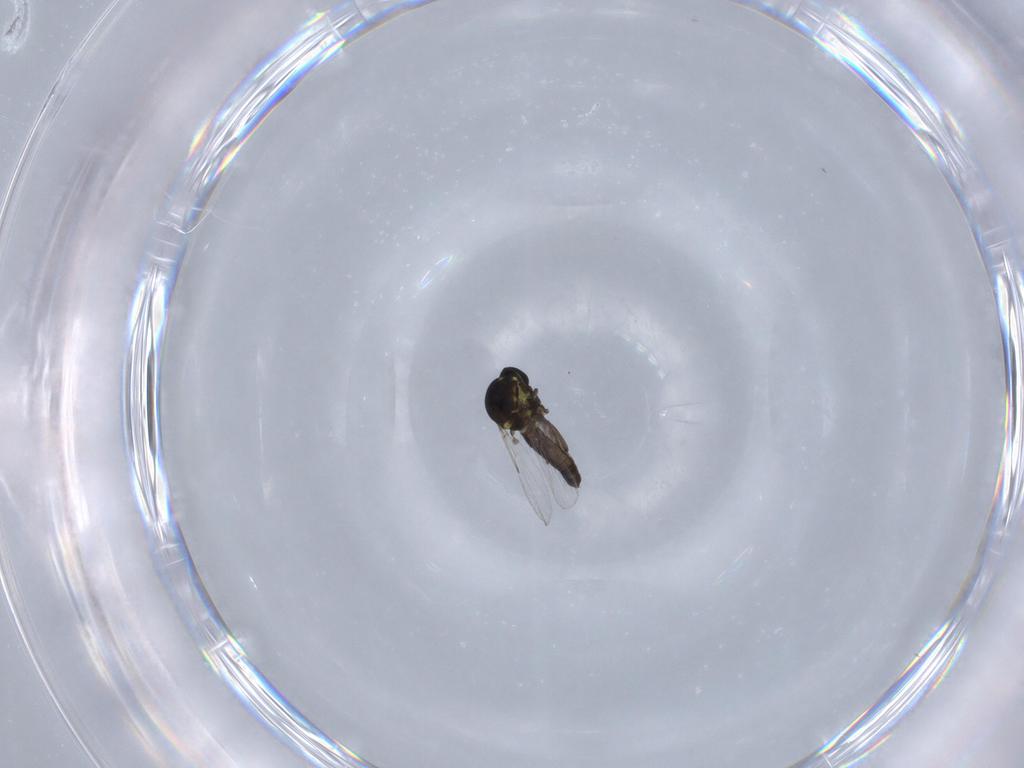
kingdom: Animalia
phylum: Arthropoda
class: Insecta
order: Diptera
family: Ceratopogonidae
